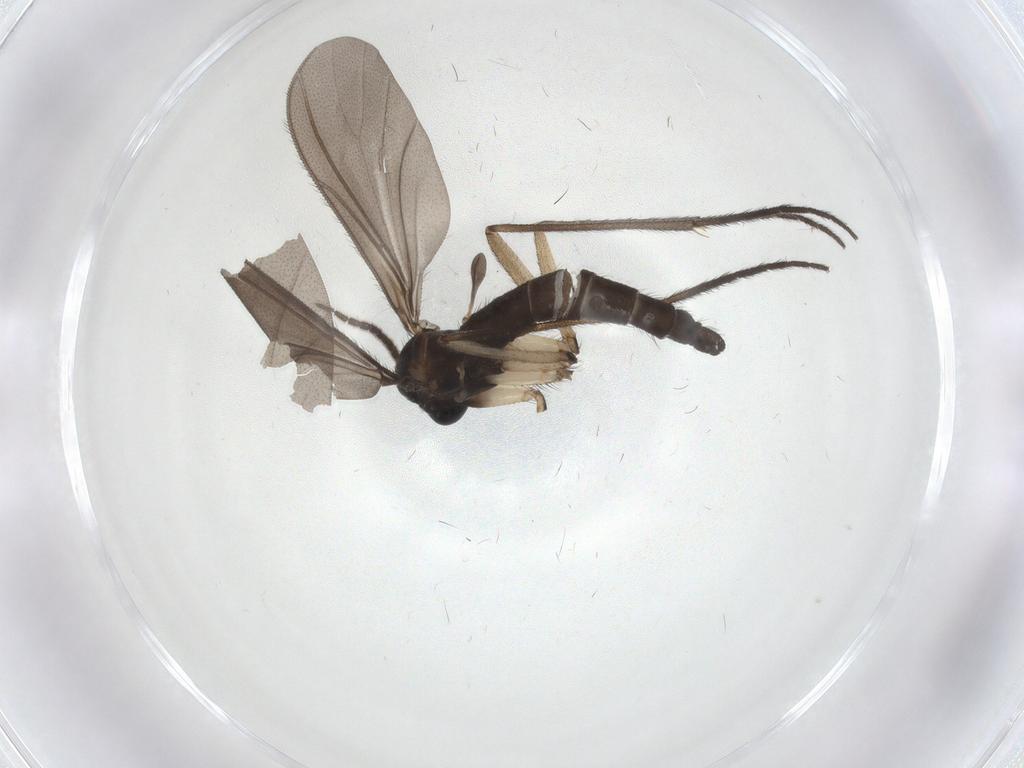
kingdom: Animalia
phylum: Arthropoda
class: Insecta
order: Diptera
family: Sciaridae
